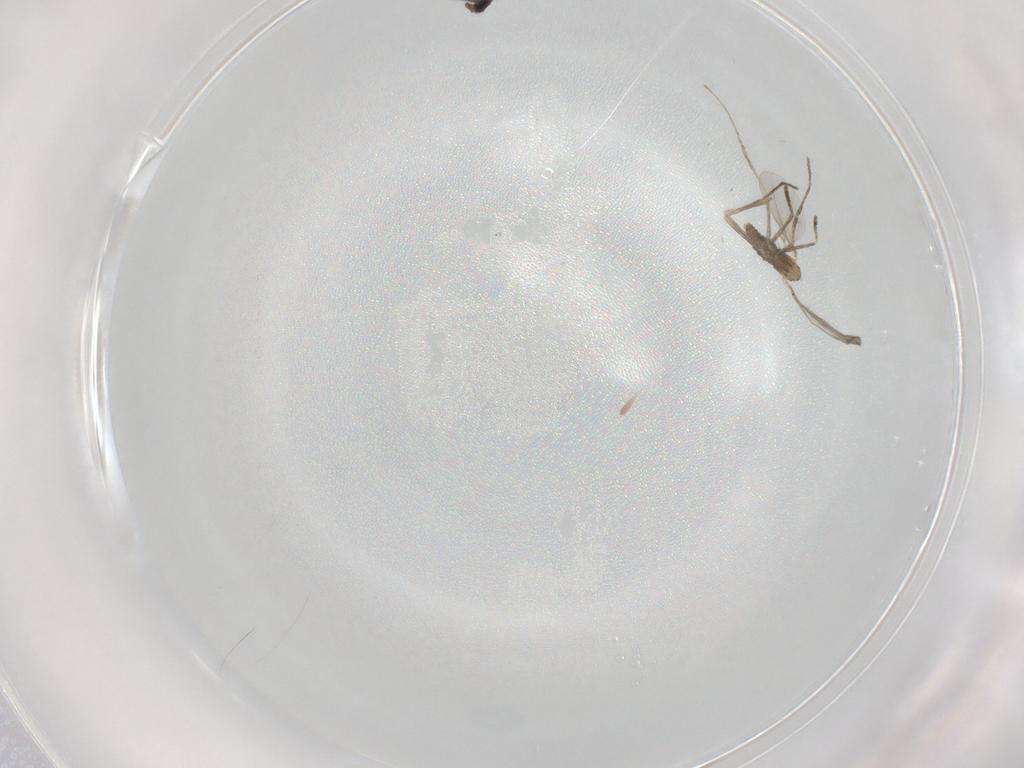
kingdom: Animalia
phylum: Arthropoda
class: Insecta
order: Diptera
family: Cecidomyiidae
